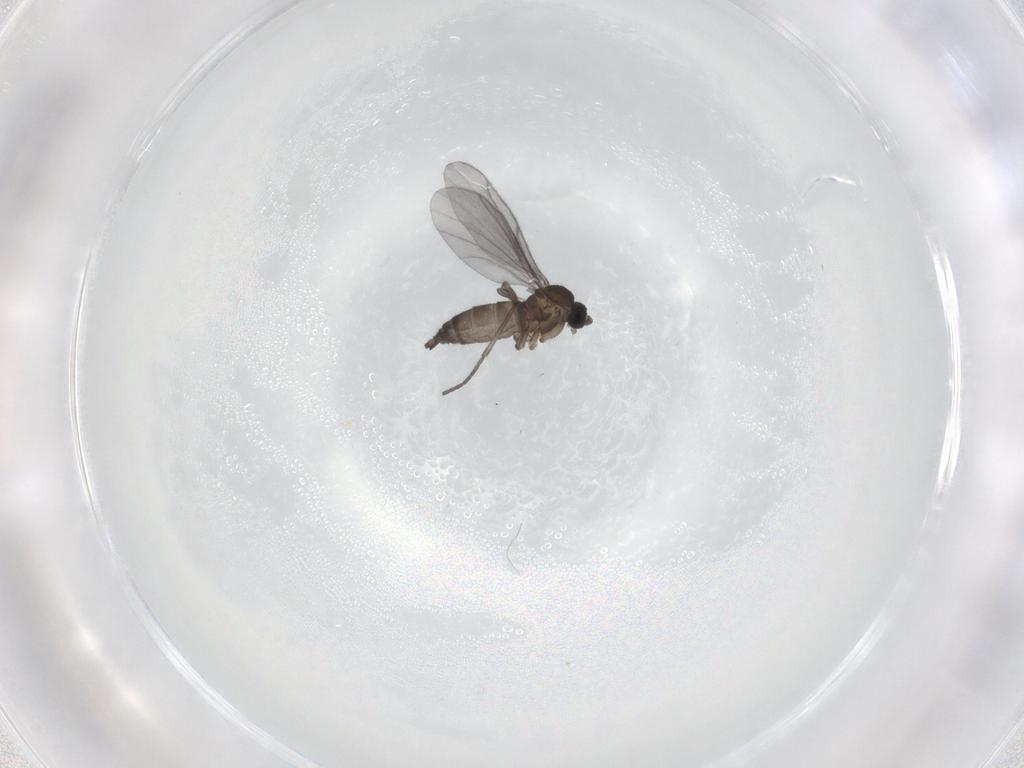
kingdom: Animalia
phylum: Arthropoda
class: Insecta
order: Diptera
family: Sciaridae
